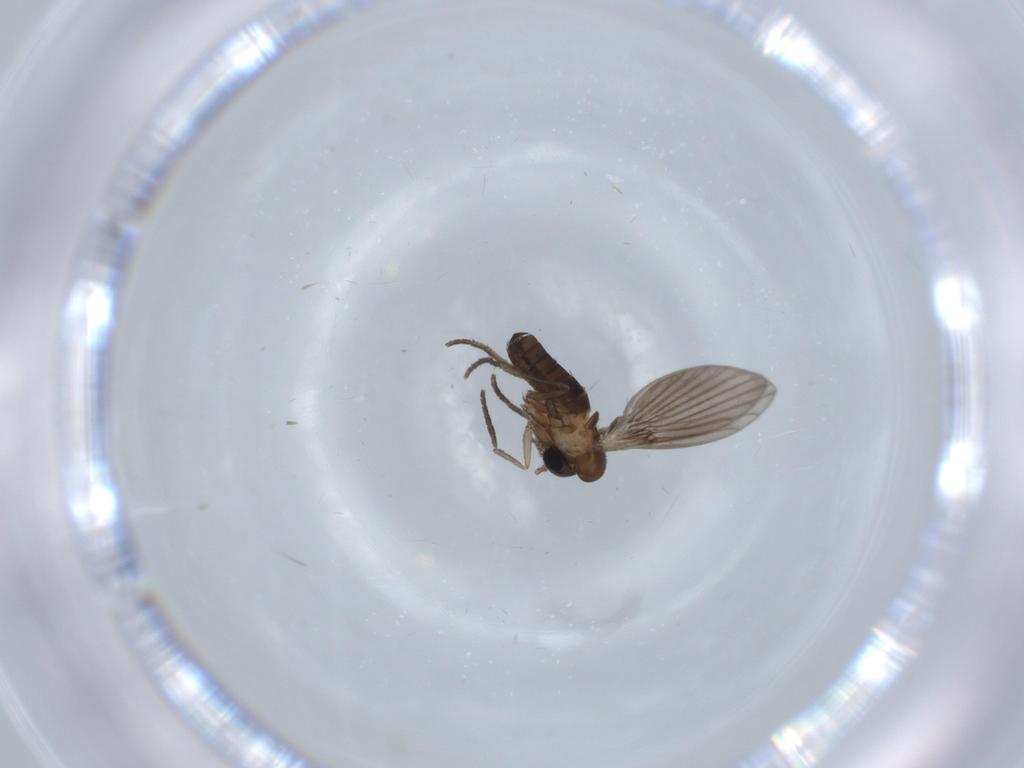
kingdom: Animalia
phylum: Arthropoda
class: Insecta
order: Diptera
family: Psychodidae
